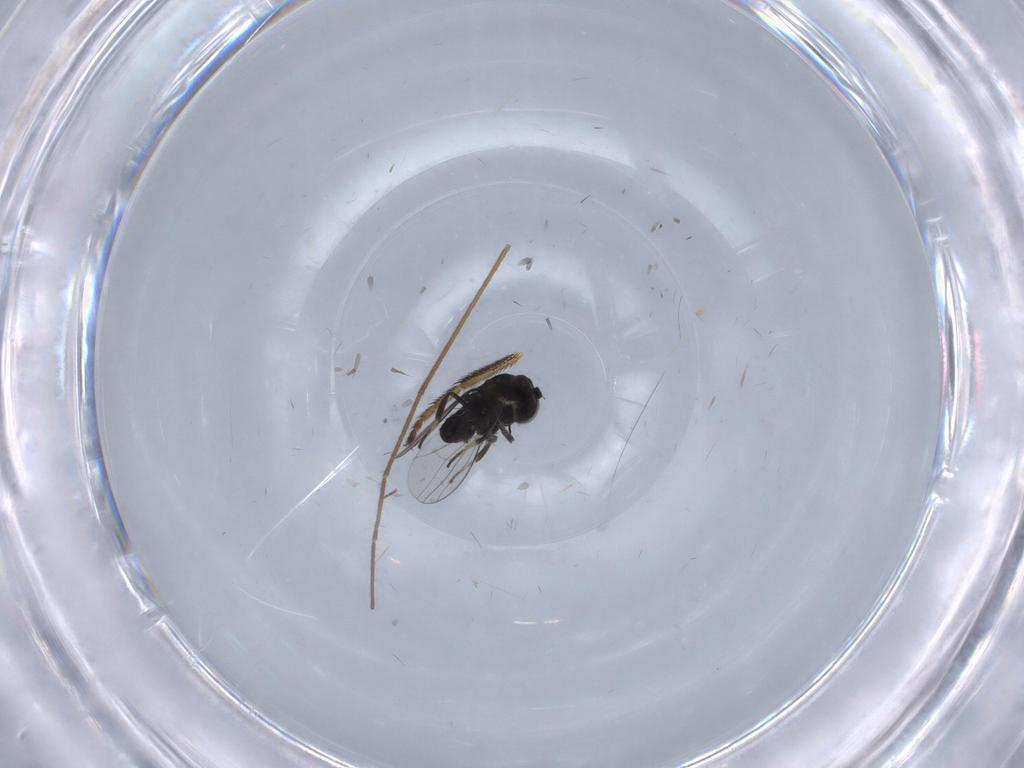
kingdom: Animalia
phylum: Arthropoda
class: Insecta
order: Diptera
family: Dolichopodidae
